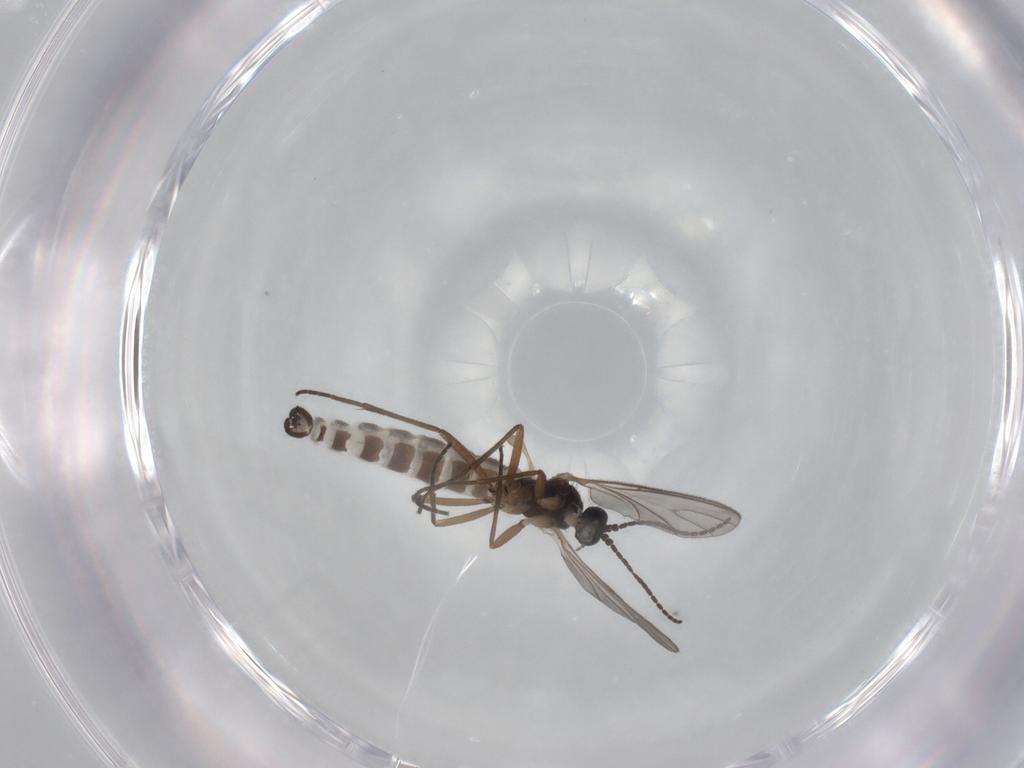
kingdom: Animalia
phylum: Arthropoda
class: Insecta
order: Diptera
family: Sciaridae
